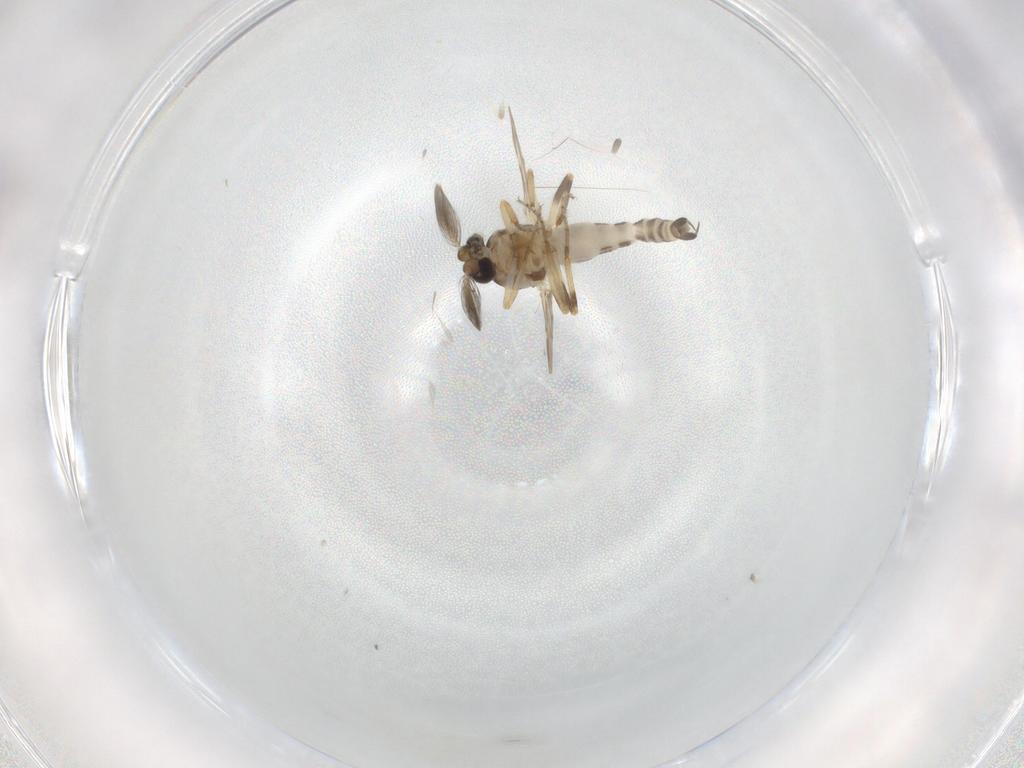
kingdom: Animalia
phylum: Arthropoda
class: Insecta
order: Diptera
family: Ceratopogonidae
